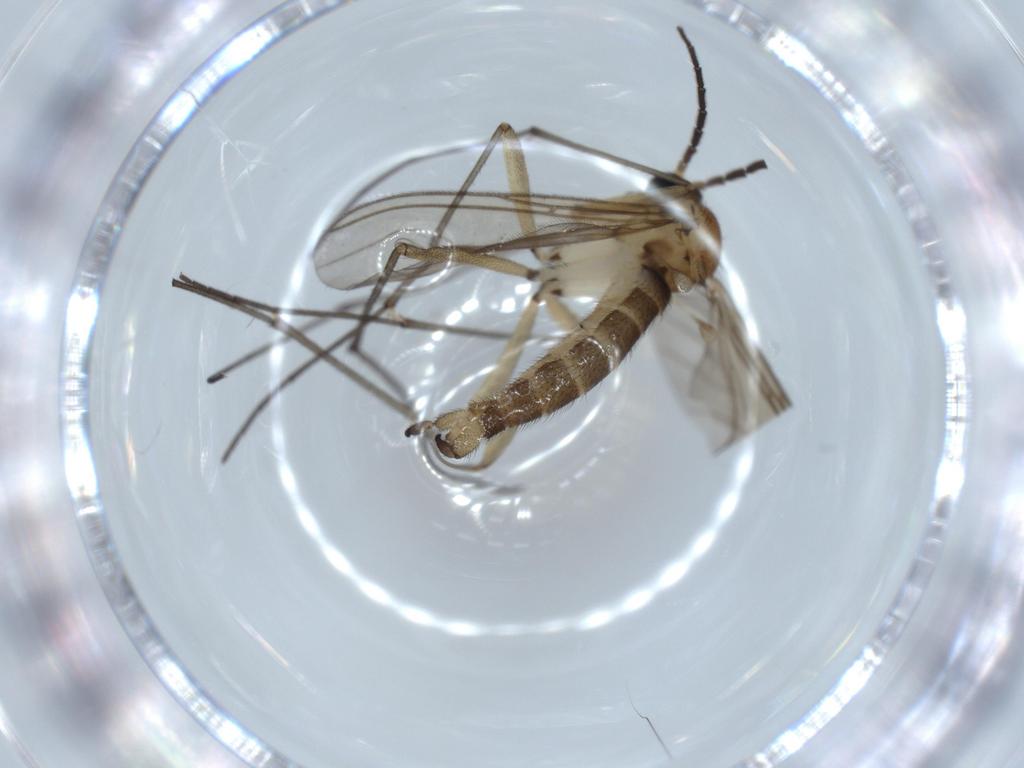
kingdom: Animalia
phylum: Arthropoda
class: Insecta
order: Diptera
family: Sciaridae
